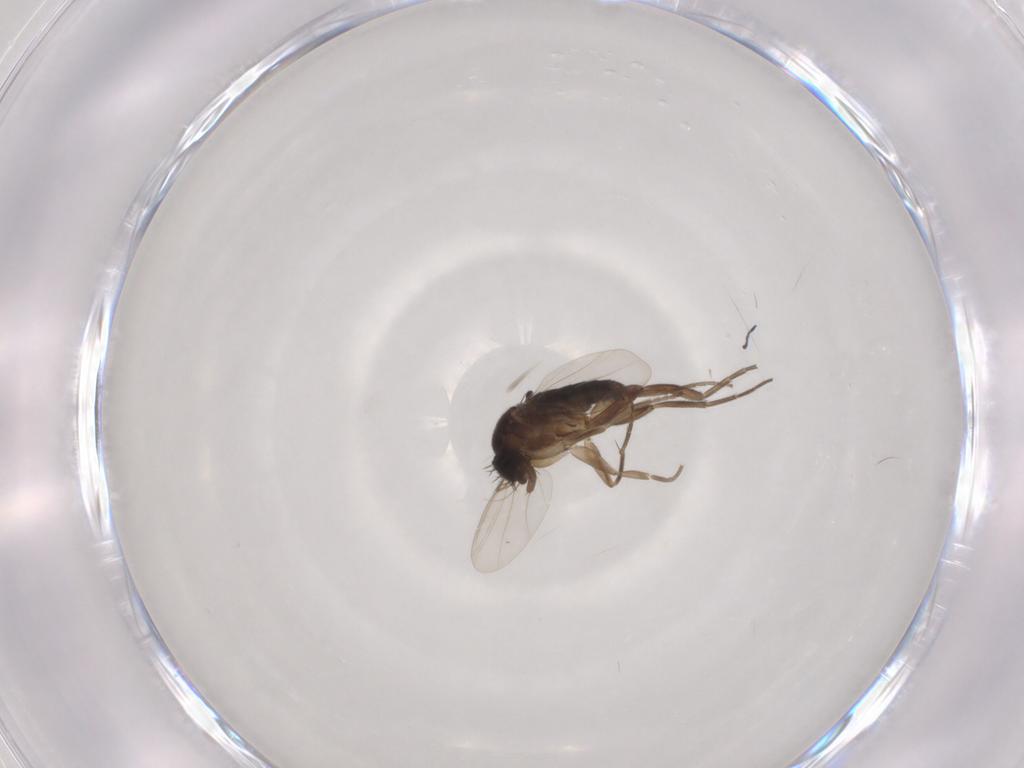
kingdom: Animalia
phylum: Arthropoda
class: Insecta
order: Diptera
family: Phoridae
